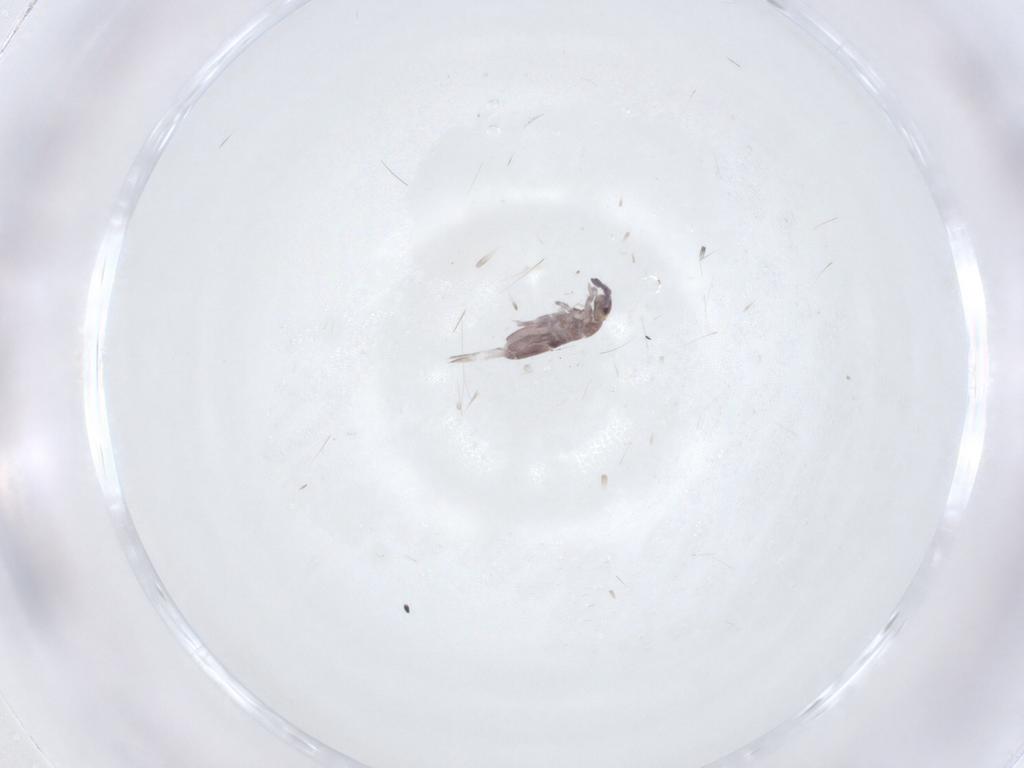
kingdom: Animalia
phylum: Arthropoda
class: Collembola
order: Entomobryomorpha
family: Entomobryidae
